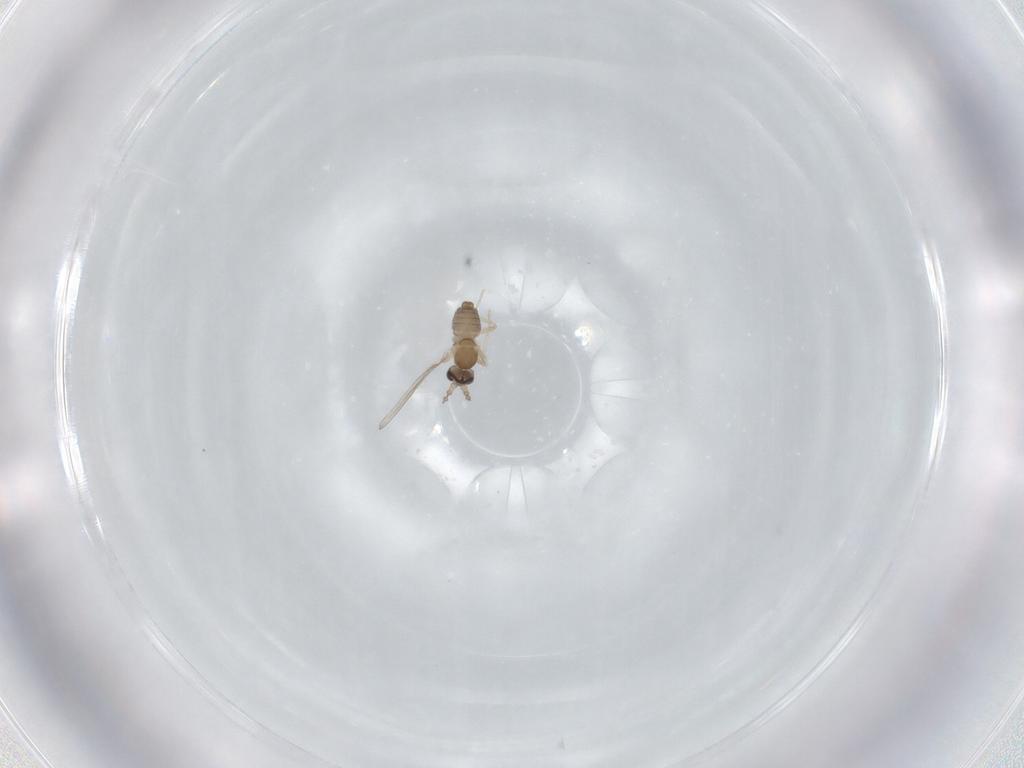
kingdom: Animalia
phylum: Arthropoda
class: Insecta
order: Diptera
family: Cecidomyiidae
